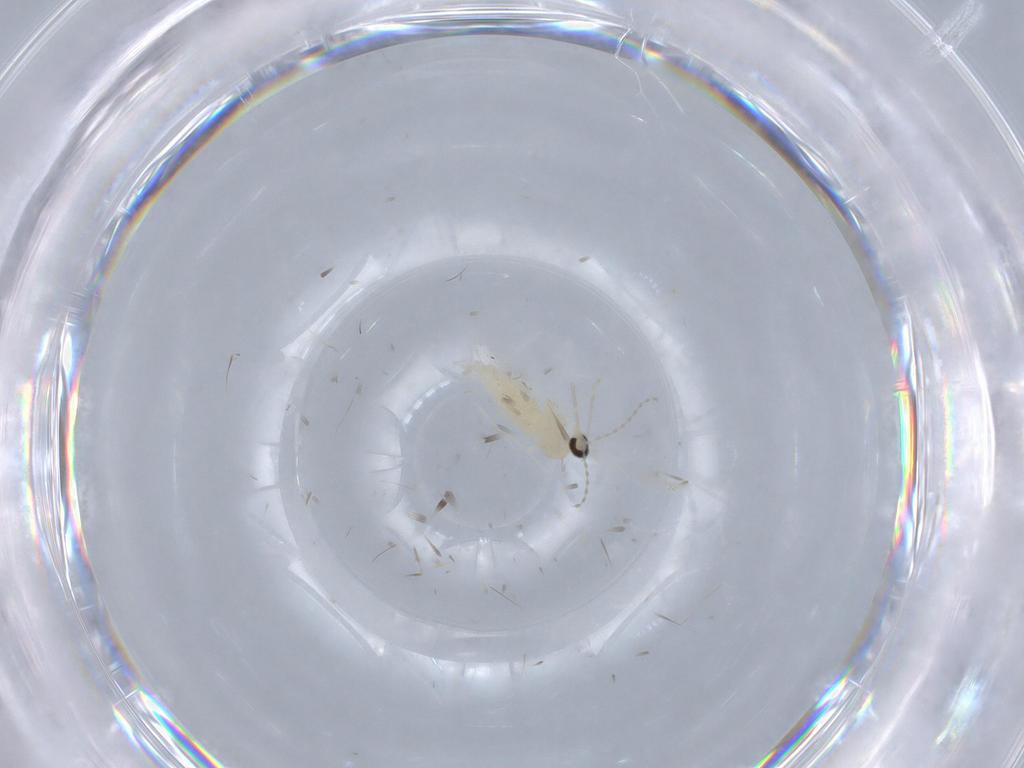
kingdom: Animalia
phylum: Arthropoda
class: Insecta
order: Diptera
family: Cecidomyiidae
